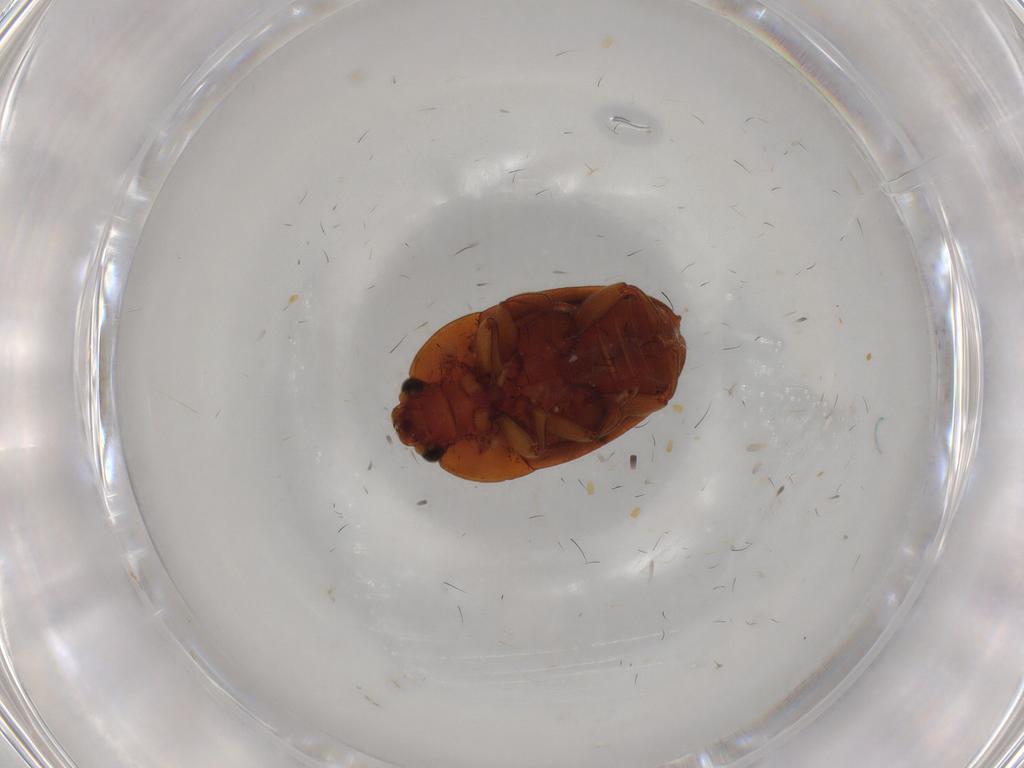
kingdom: Animalia
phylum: Arthropoda
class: Insecta
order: Coleoptera
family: Ptilodactylidae
